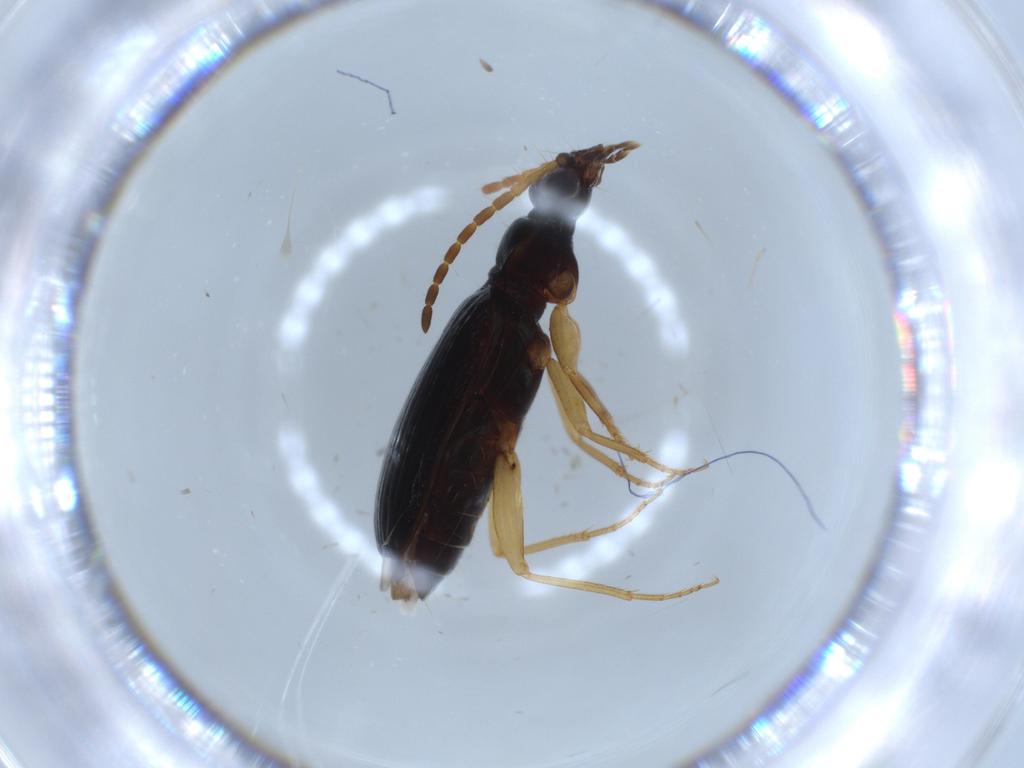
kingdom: Animalia
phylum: Arthropoda
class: Insecta
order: Coleoptera
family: Carabidae
